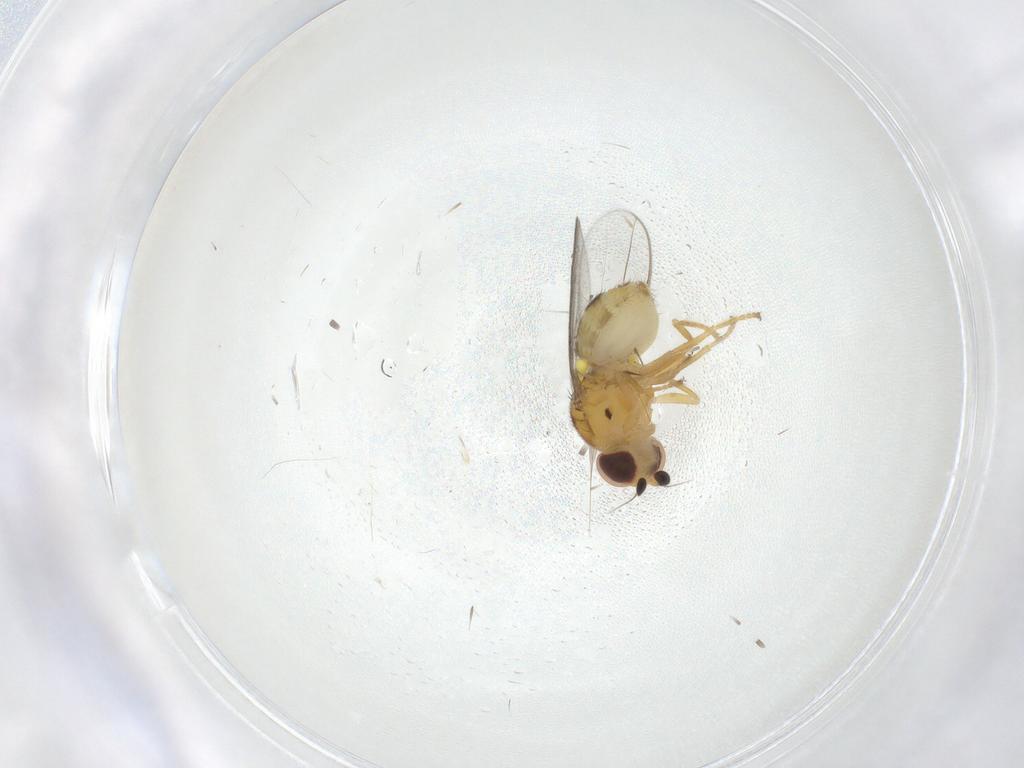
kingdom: Animalia
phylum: Arthropoda
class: Insecta
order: Diptera
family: Chloropidae
